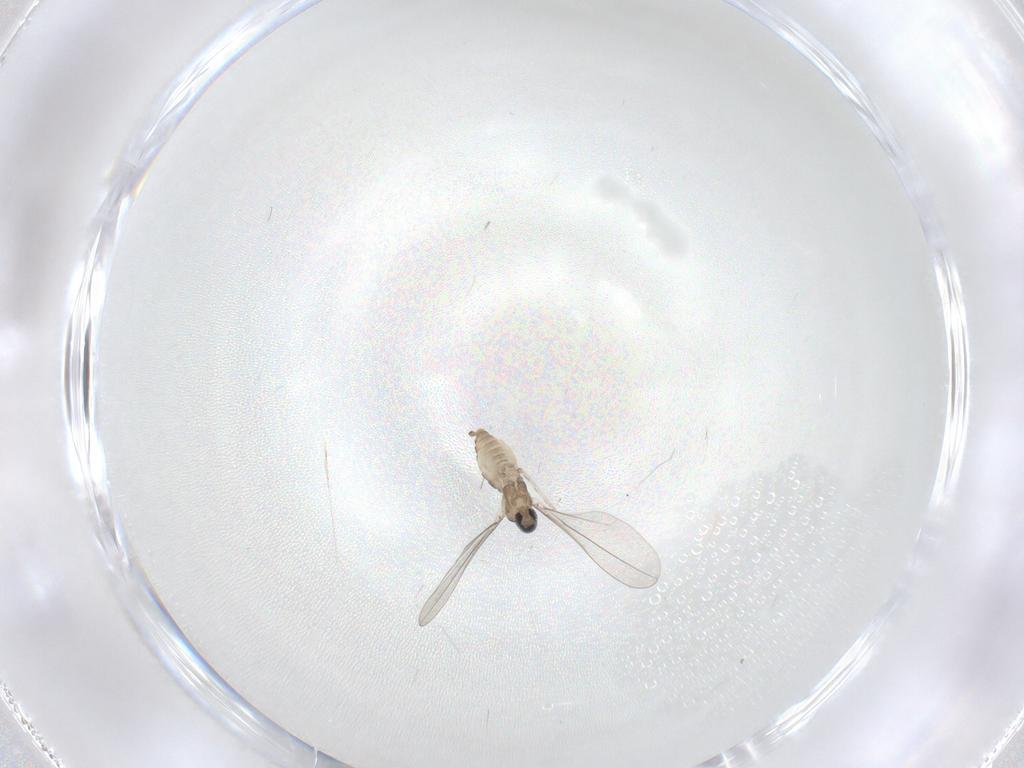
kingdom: Animalia
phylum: Arthropoda
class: Insecta
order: Diptera
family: Cecidomyiidae
